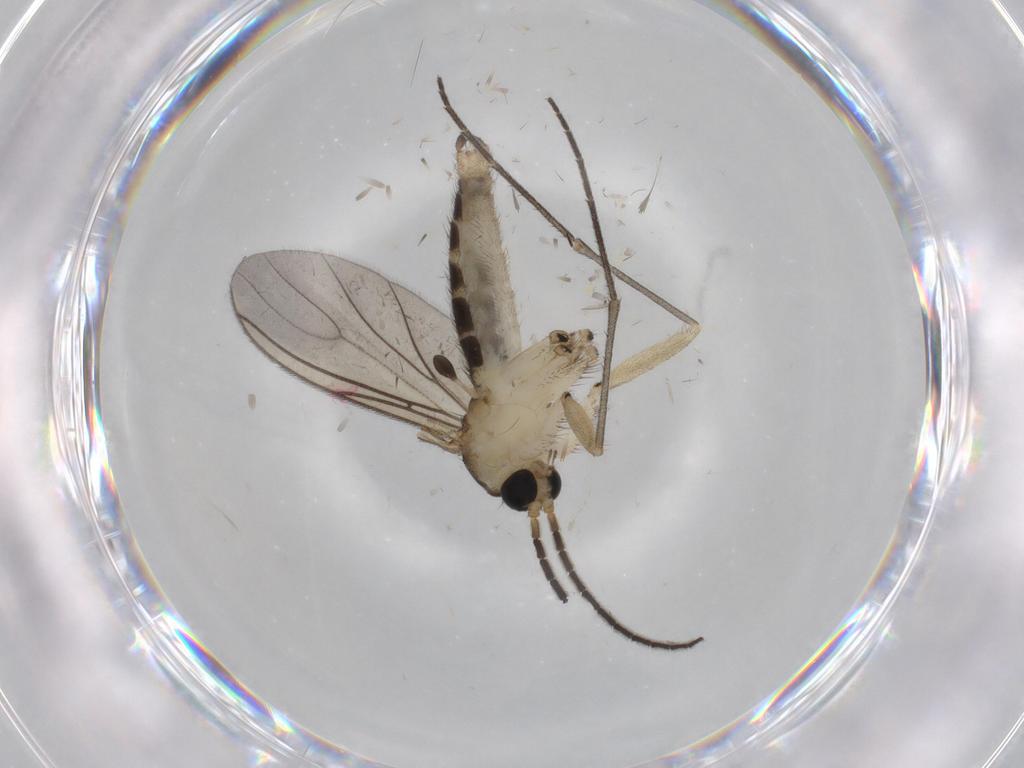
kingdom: Animalia
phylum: Arthropoda
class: Insecta
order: Diptera
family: Sciaridae
